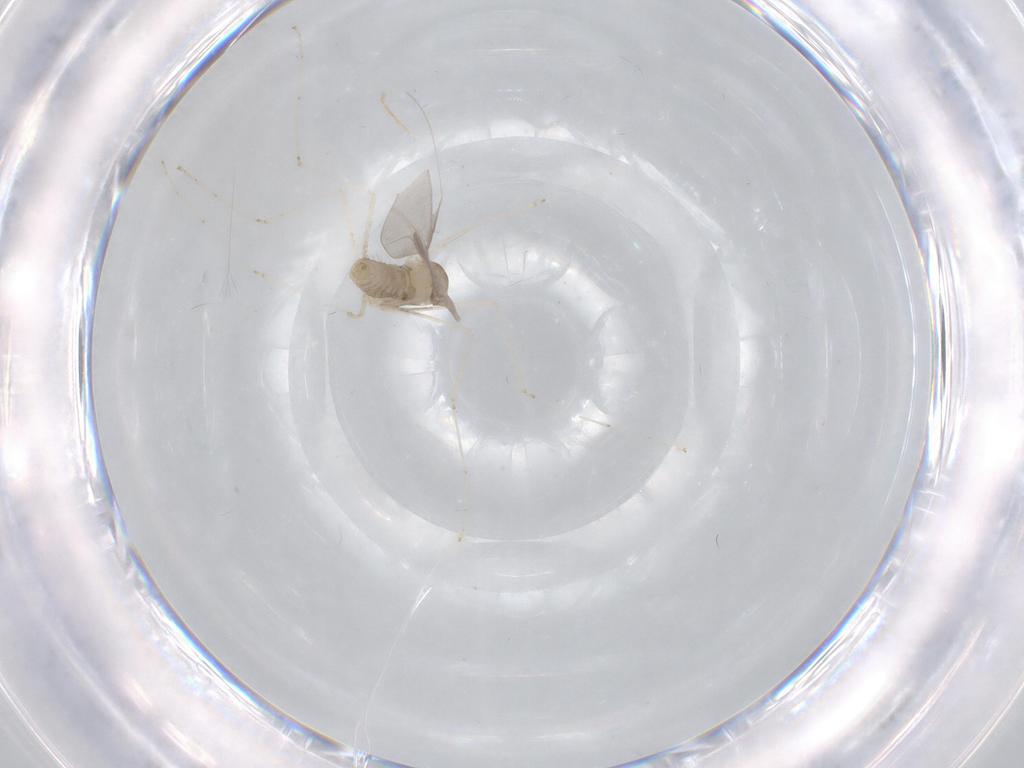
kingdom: Animalia
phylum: Arthropoda
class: Insecta
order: Diptera
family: Cecidomyiidae
